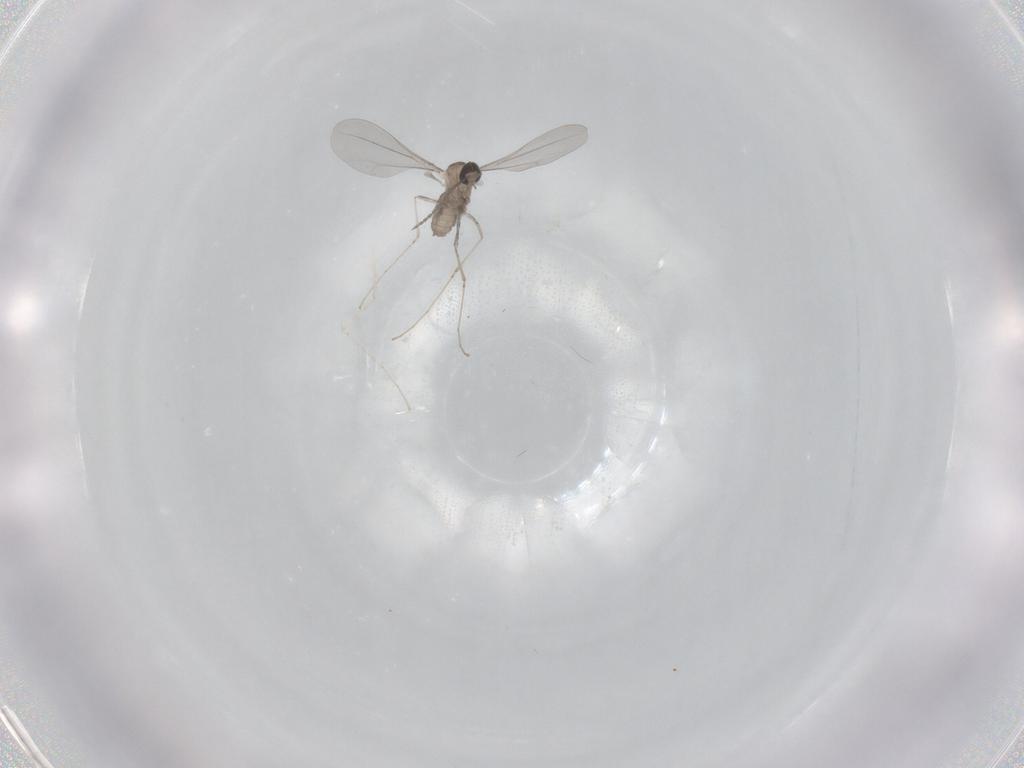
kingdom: Animalia
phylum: Arthropoda
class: Insecta
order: Diptera
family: Cecidomyiidae
